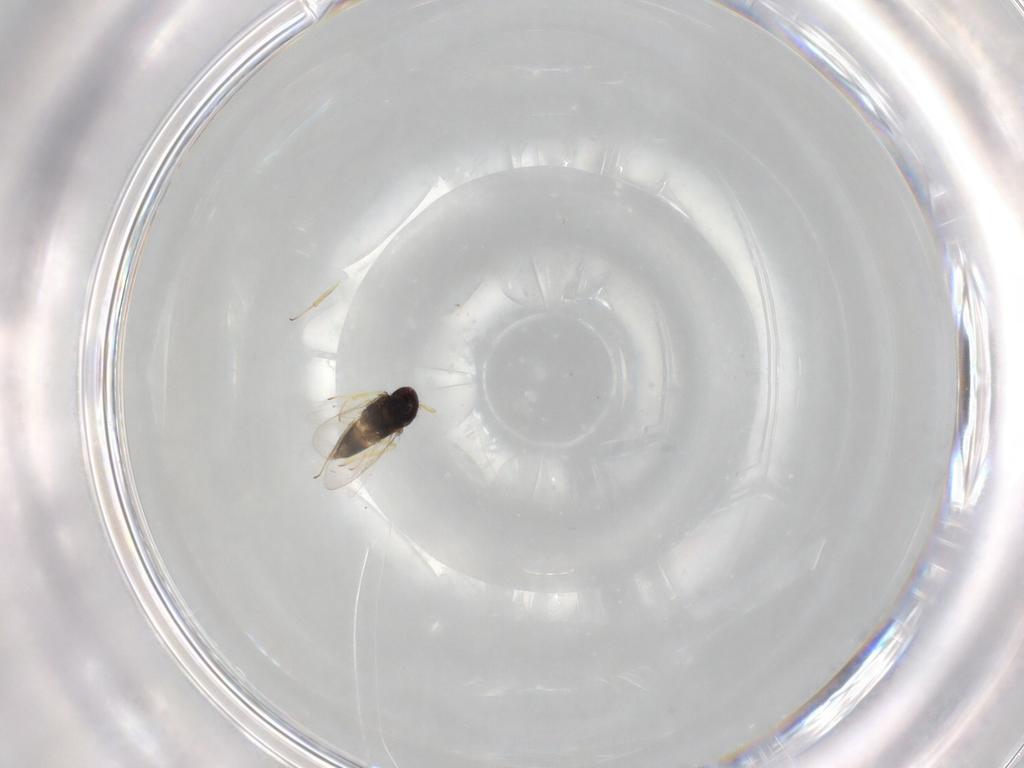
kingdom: Animalia
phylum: Arthropoda
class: Insecta
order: Hymenoptera
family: Aphelinidae
